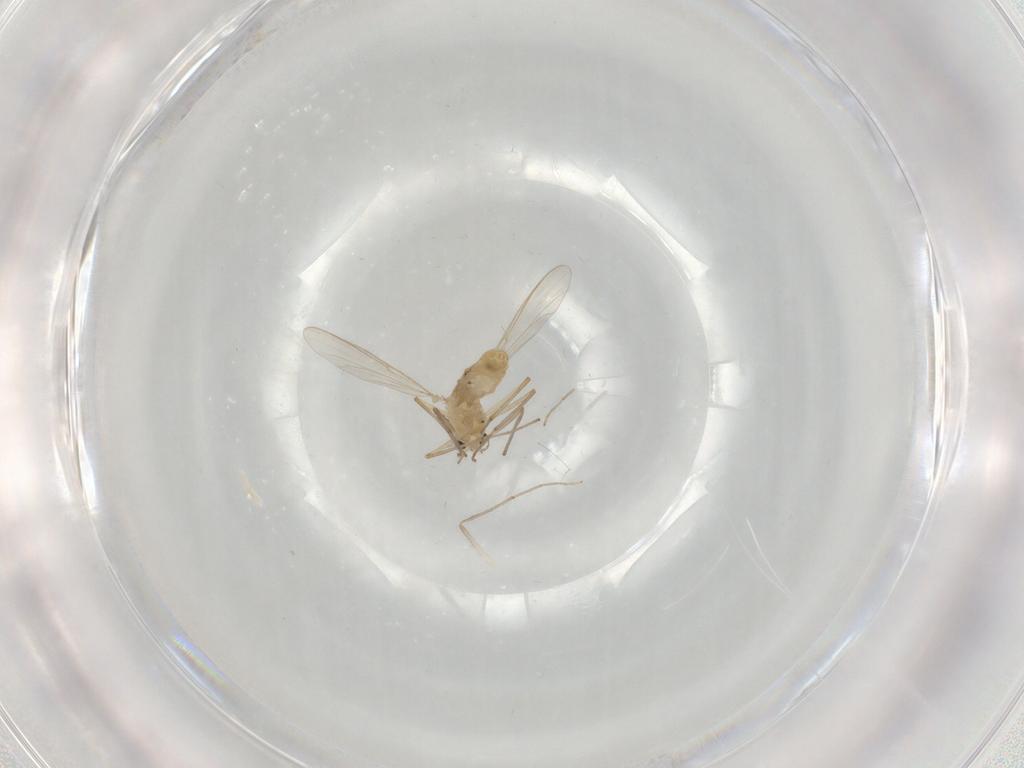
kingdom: Animalia
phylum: Arthropoda
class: Insecta
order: Diptera
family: Chironomidae
